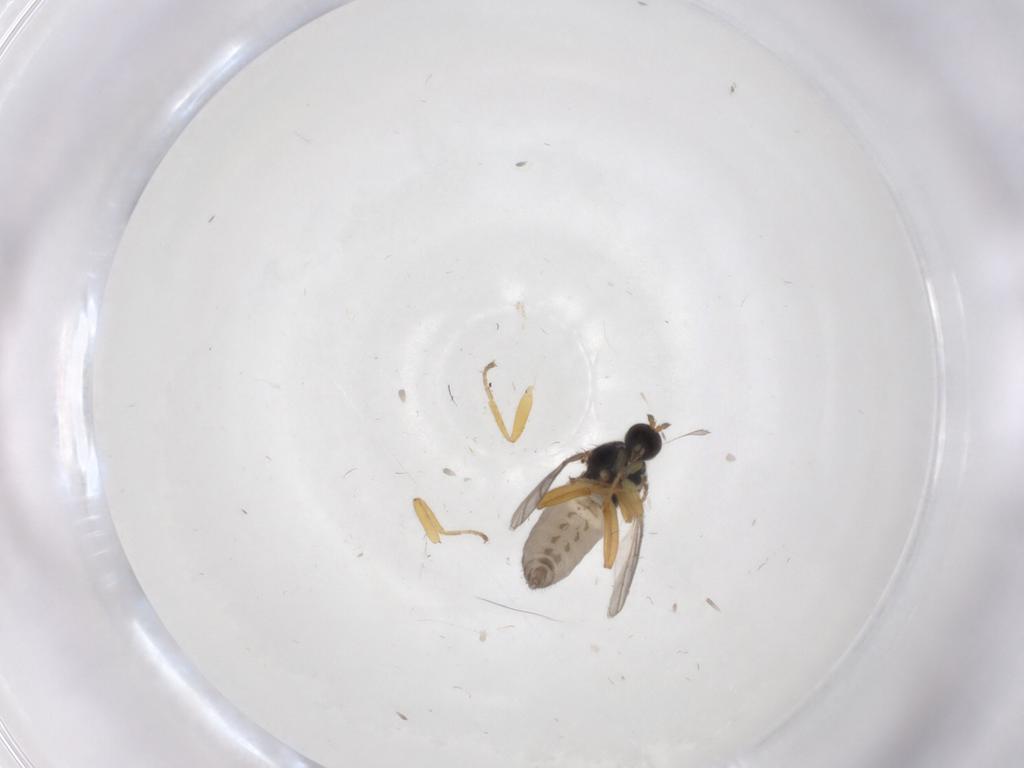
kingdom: Animalia
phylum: Arthropoda
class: Insecta
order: Diptera
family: Hybotidae
